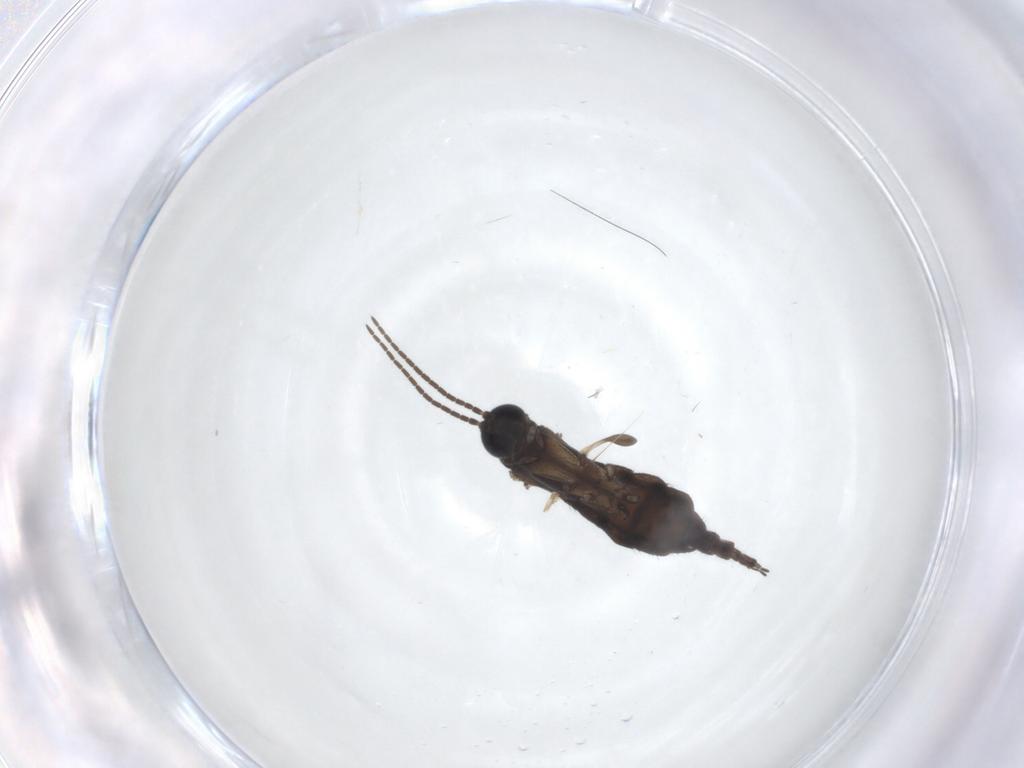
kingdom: Animalia
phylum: Arthropoda
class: Insecta
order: Diptera
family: Sciaridae
